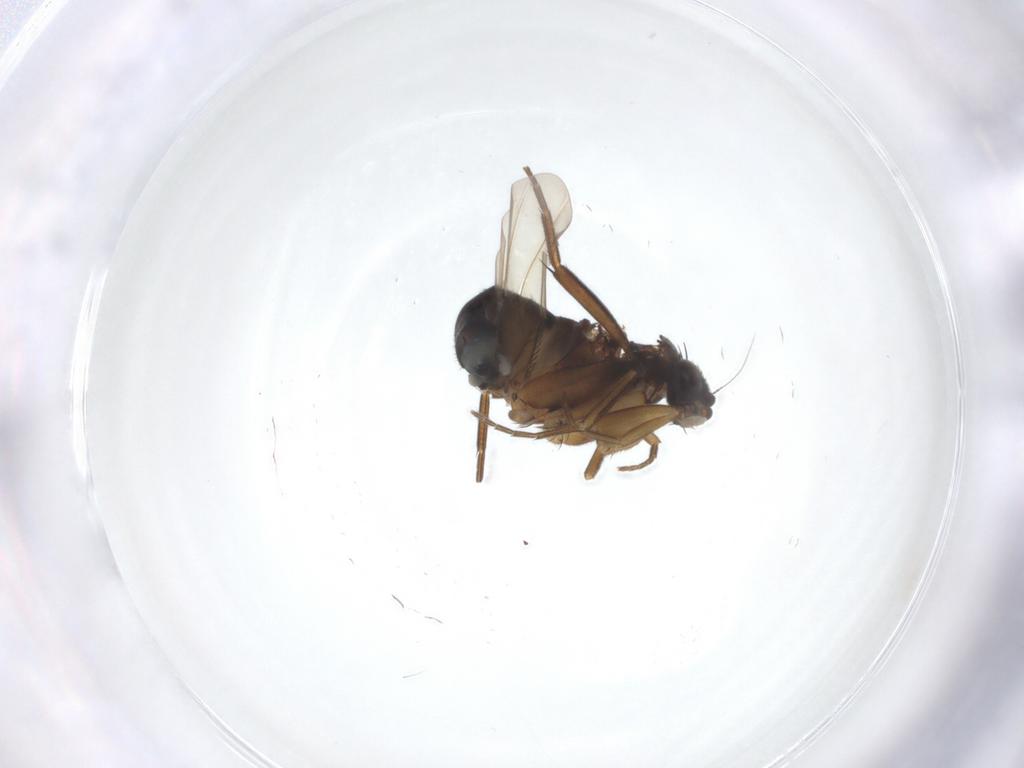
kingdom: Animalia
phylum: Arthropoda
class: Insecta
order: Diptera
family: Phoridae
